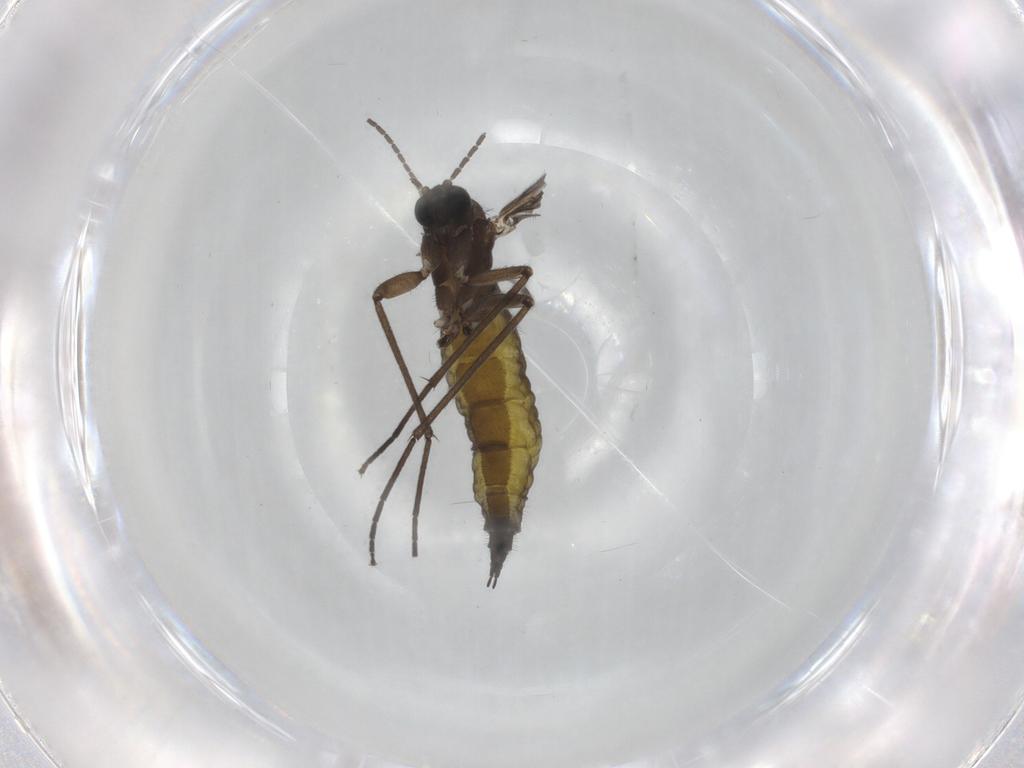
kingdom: Animalia
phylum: Arthropoda
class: Insecta
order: Diptera
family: Sciaridae
